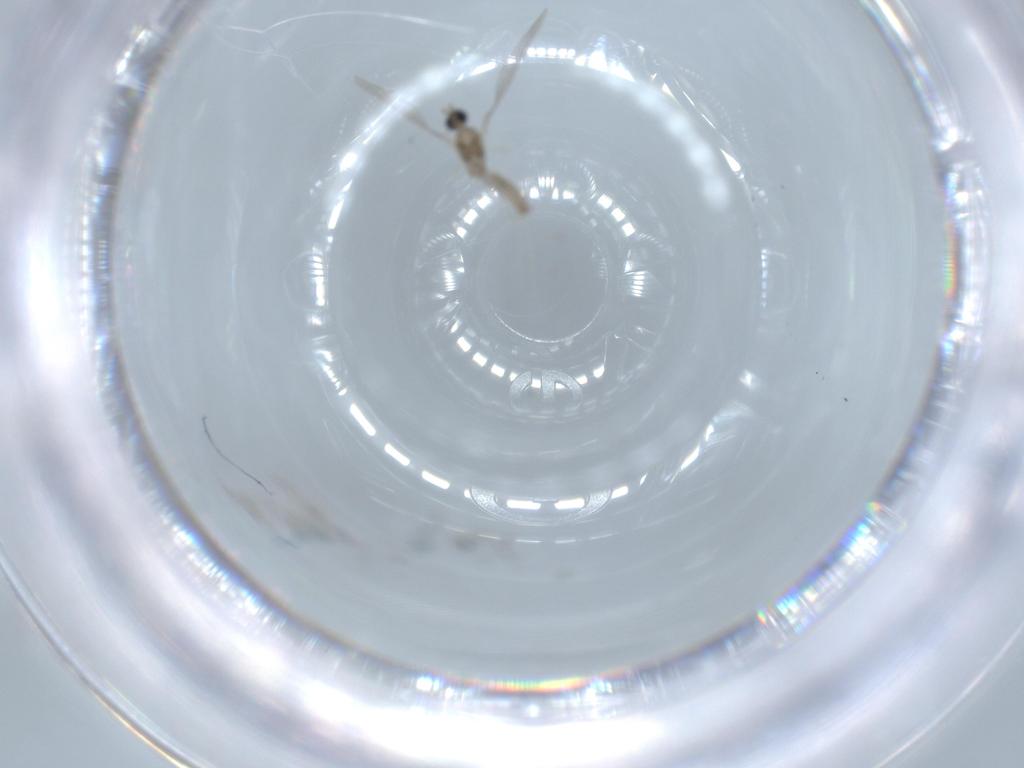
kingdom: Animalia
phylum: Arthropoda
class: Insecta
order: Diptera
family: Cecidomyiidae
